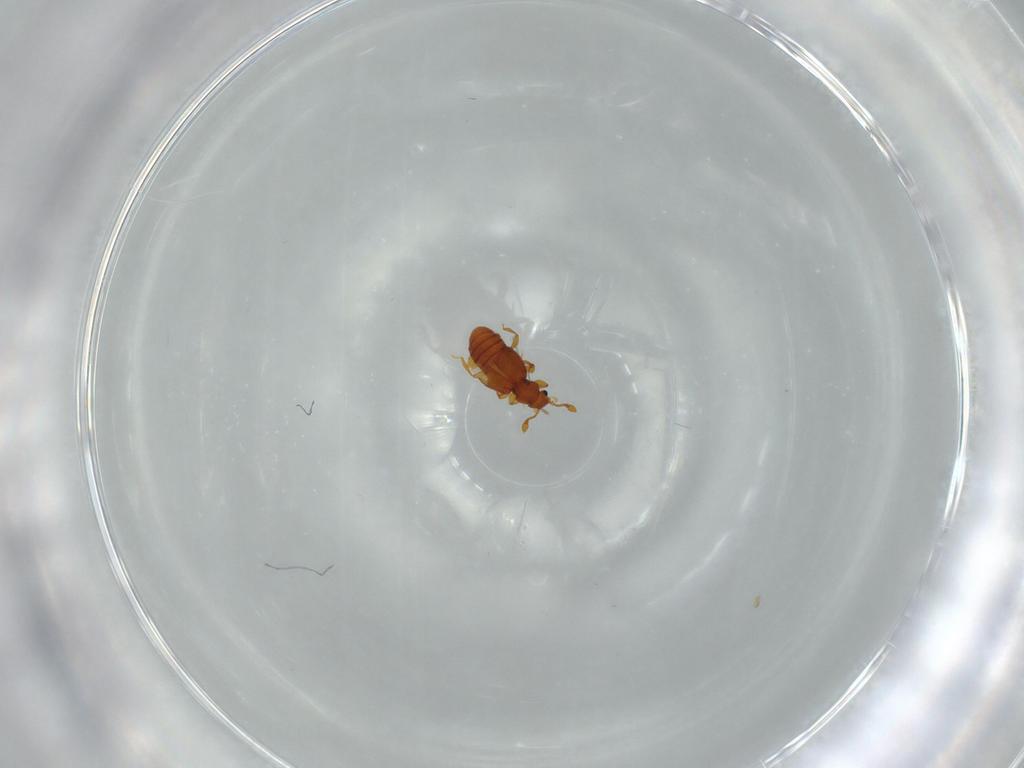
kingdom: Animalia
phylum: Arthropoda
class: Insecta
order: Coleoptera
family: Staphylinidae
